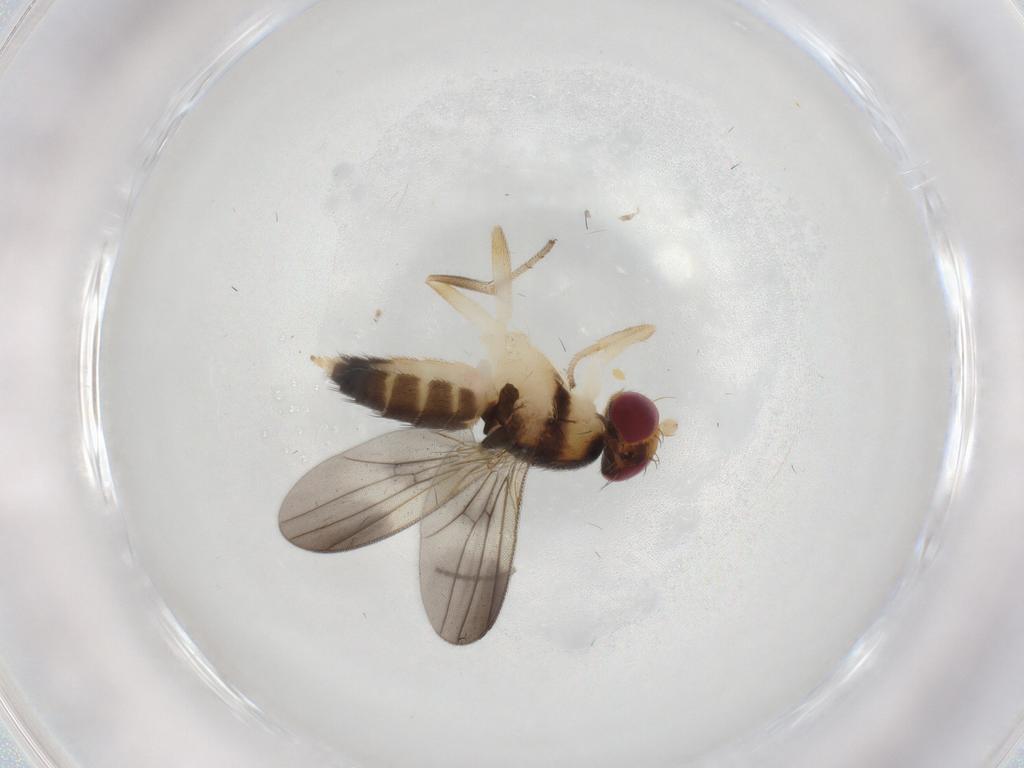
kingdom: Animalia
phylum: Arthropoda
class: Insecta
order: Diptera
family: Clusiidae
